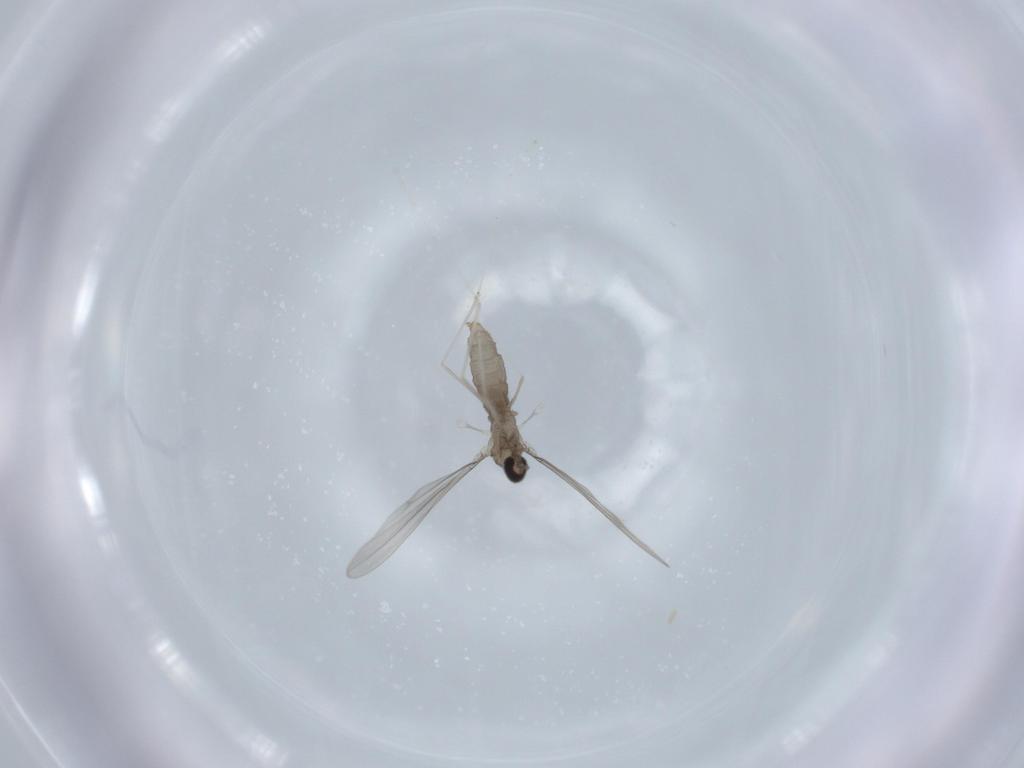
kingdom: Animalia
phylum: Arthropoda
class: Insecta
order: Diptera
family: Cecidomyiidae
